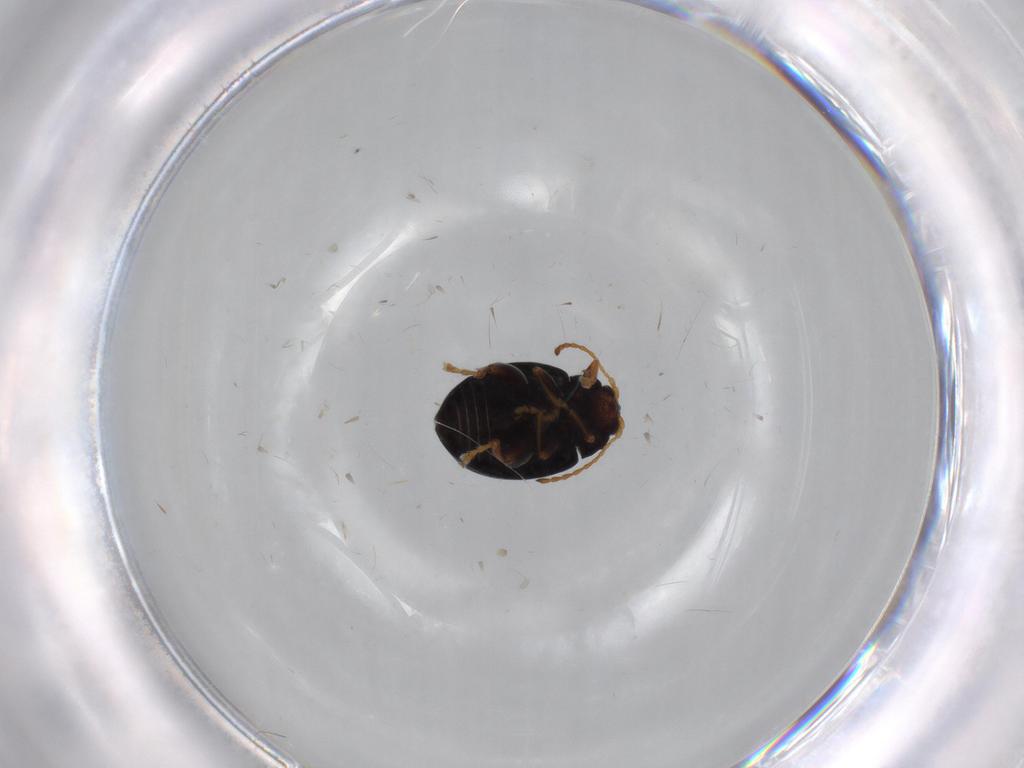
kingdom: Animalia
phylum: Arthropoda
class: Insecta
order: Coleoptera
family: Chrysomelidae
